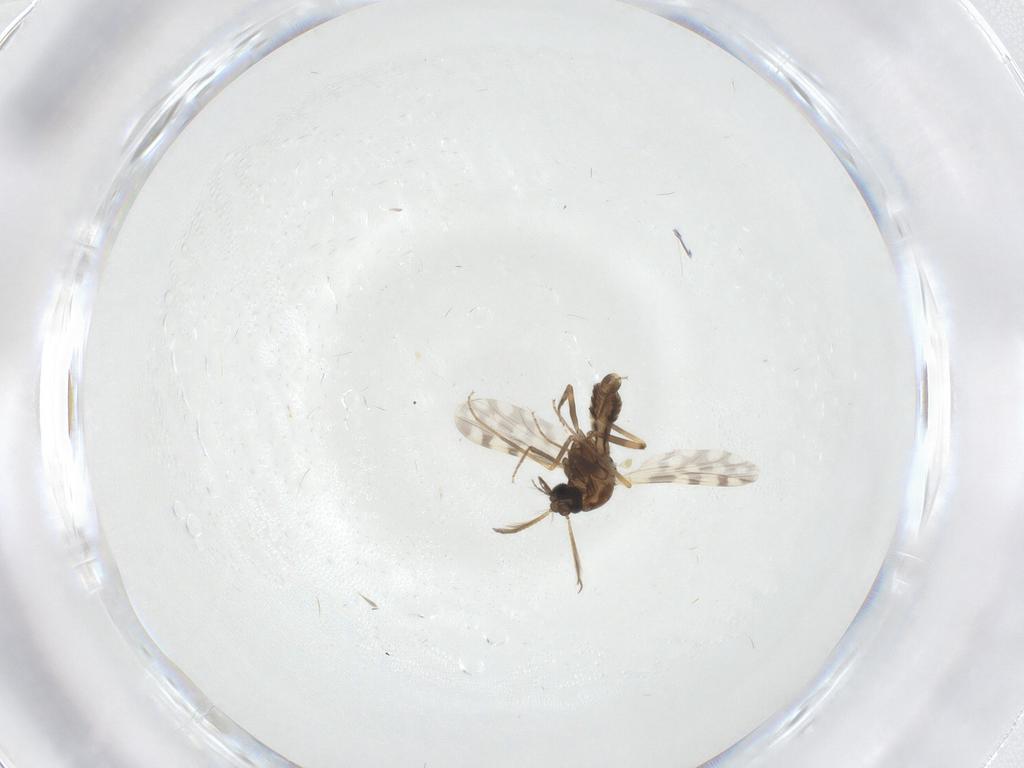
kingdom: Animalia
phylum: Arthropoda
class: Insecta
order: Diptera
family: Ceratopogonidae
